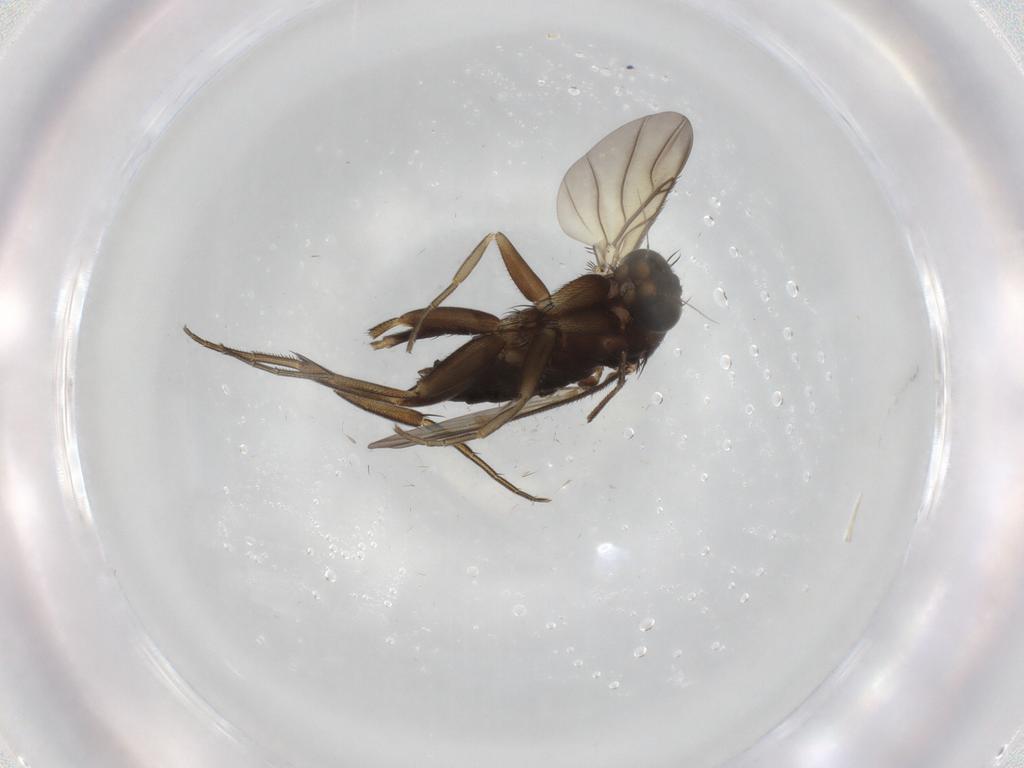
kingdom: Animalia
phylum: Arthropoda
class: Insecta
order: Diptera
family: Phoridae
